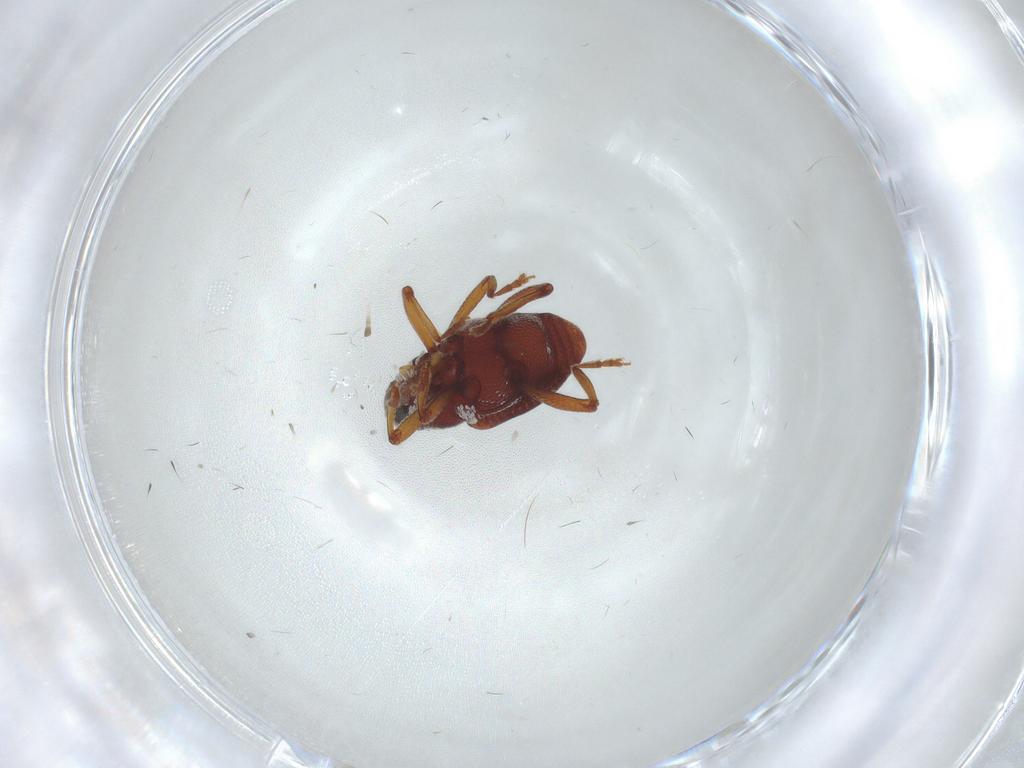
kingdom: Animalia
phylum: Arthropoda
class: Insecta
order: Coleoptera
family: Curculionidae
